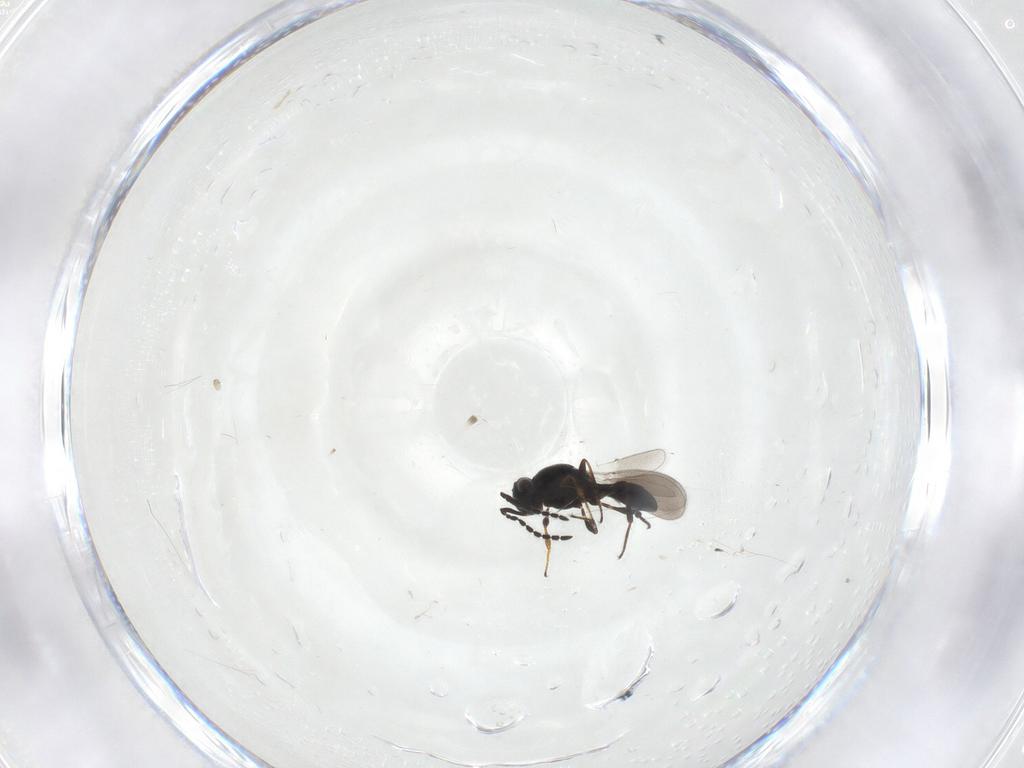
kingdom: Animalia
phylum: Arthropoda
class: Insecta
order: Hymenoptera
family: Platygastridae
